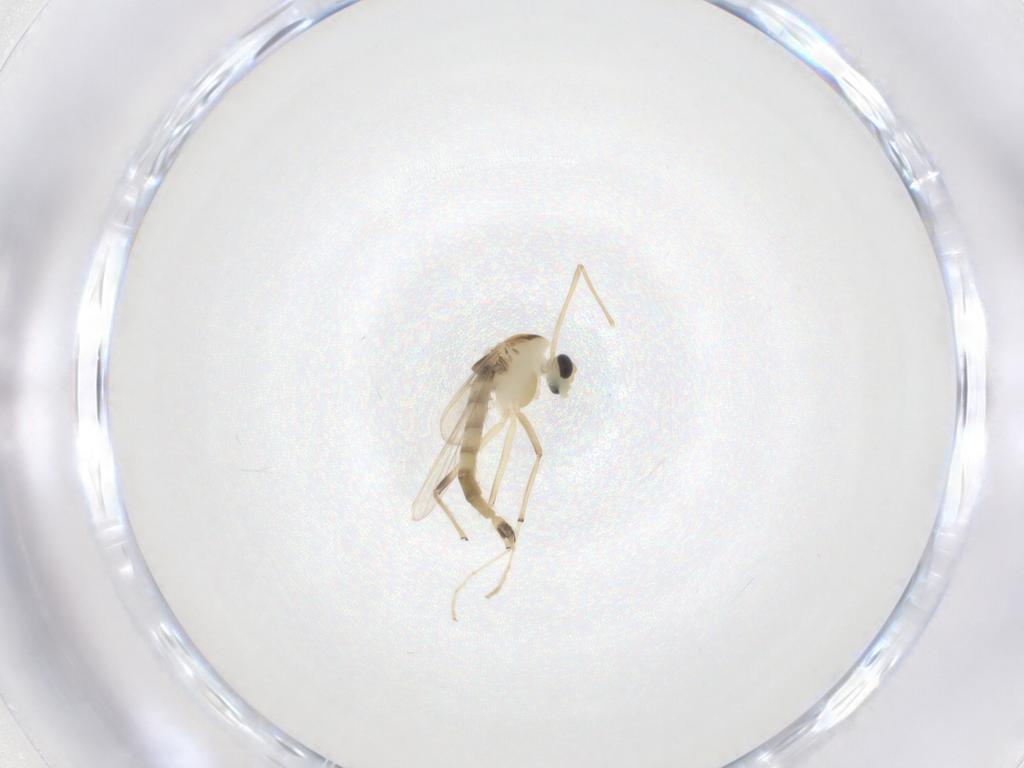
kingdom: Animalia
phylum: Arthropoda
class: Insecta
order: Diptera
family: Chironomidae
